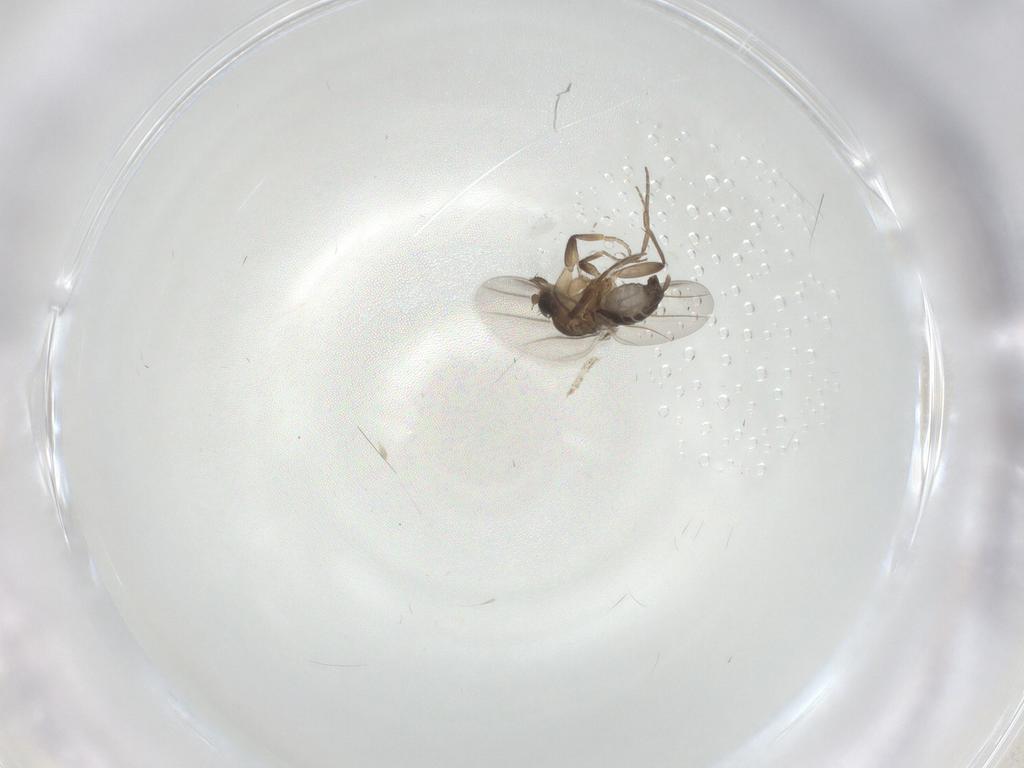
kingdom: Animalia
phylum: Arthropoda
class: Insecta
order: Diptera
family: Phoridae
